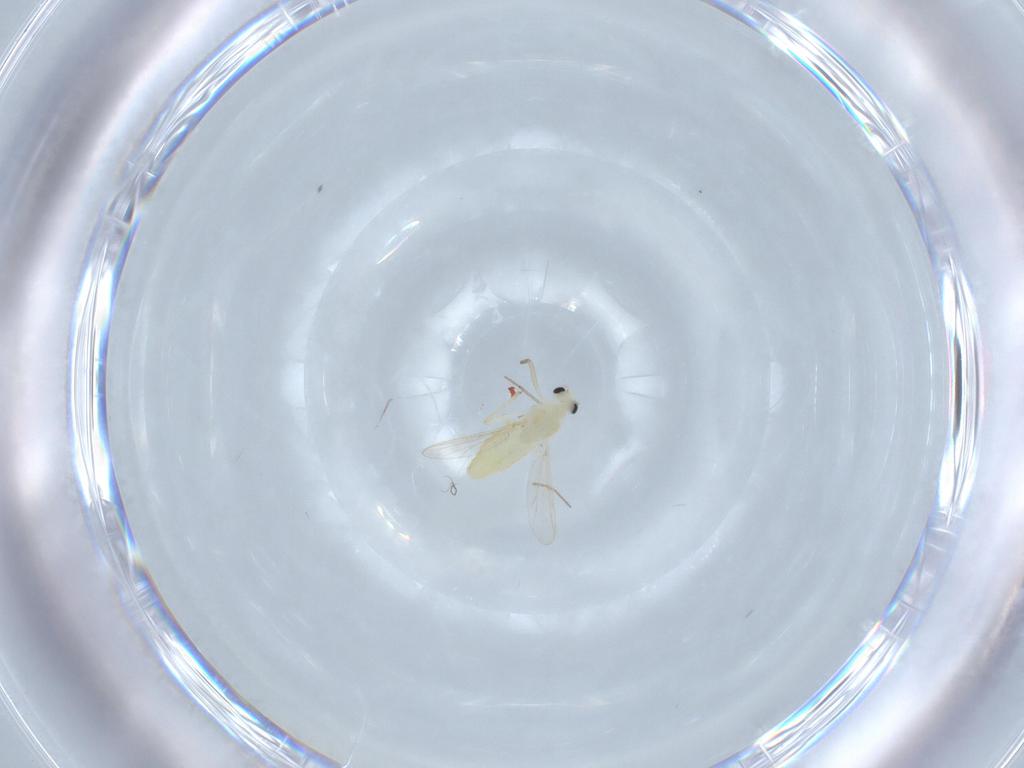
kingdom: Animalia
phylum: Arthropoda
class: Insecta
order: Diptera
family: Chironomidae
